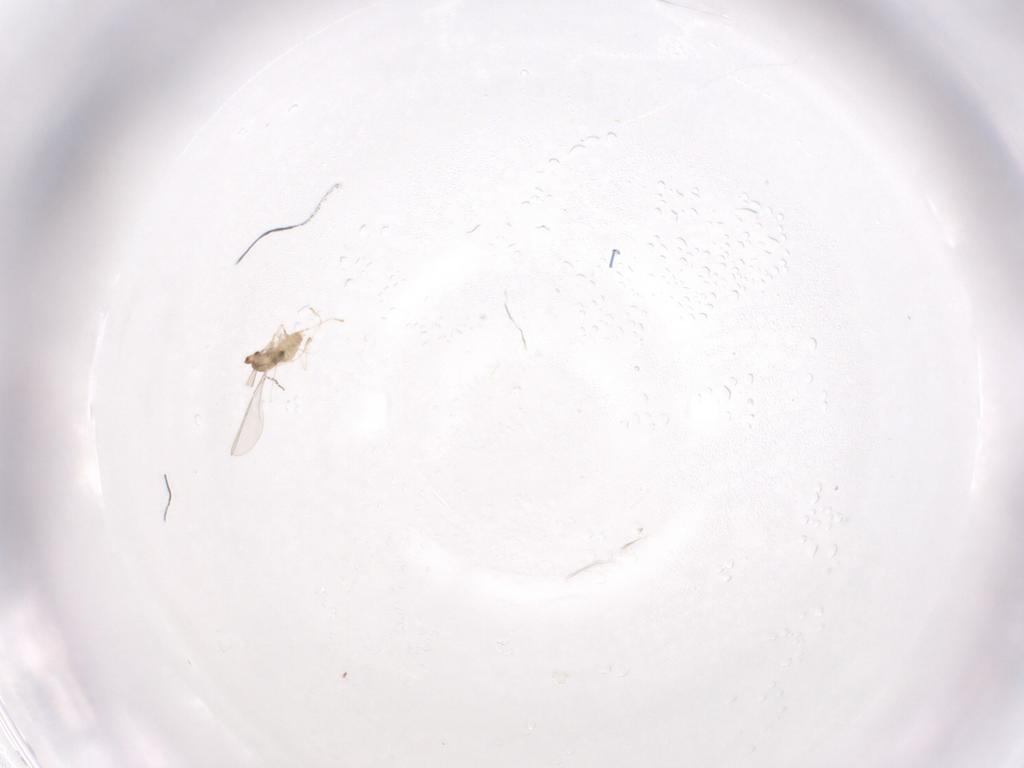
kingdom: Animalia
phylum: Arthropoda
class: Insecta
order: Diptera
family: Cecidomyiidae
